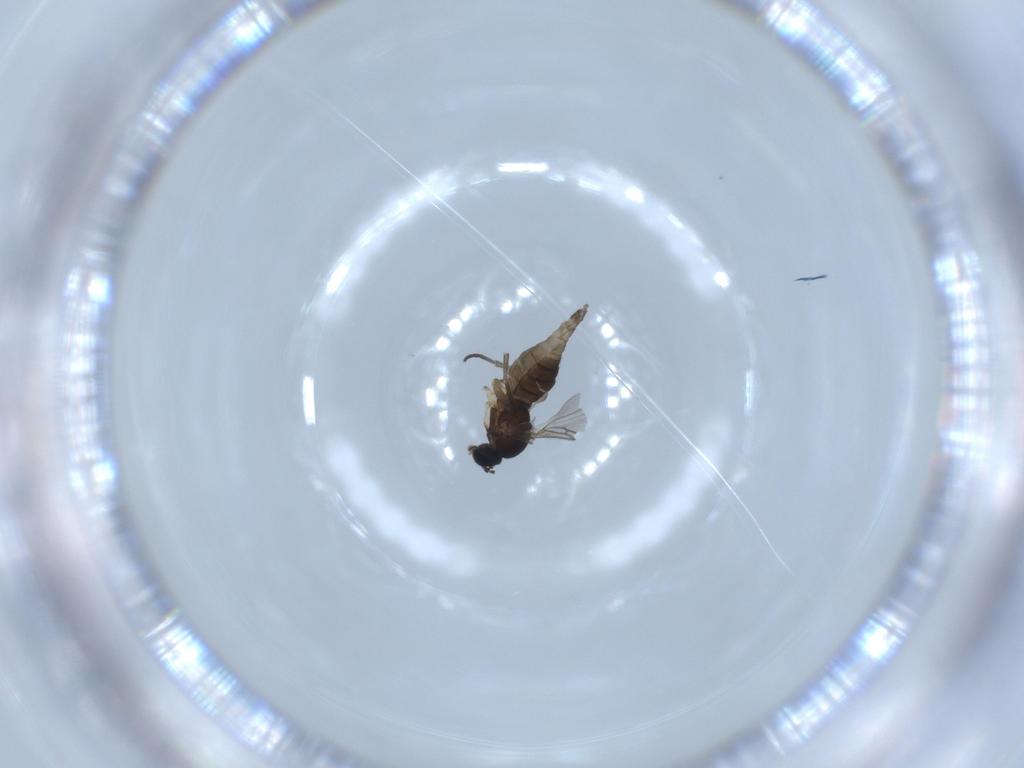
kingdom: Animalia
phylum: Arthropoda
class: Insecta
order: Diptera
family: Sciaridae
